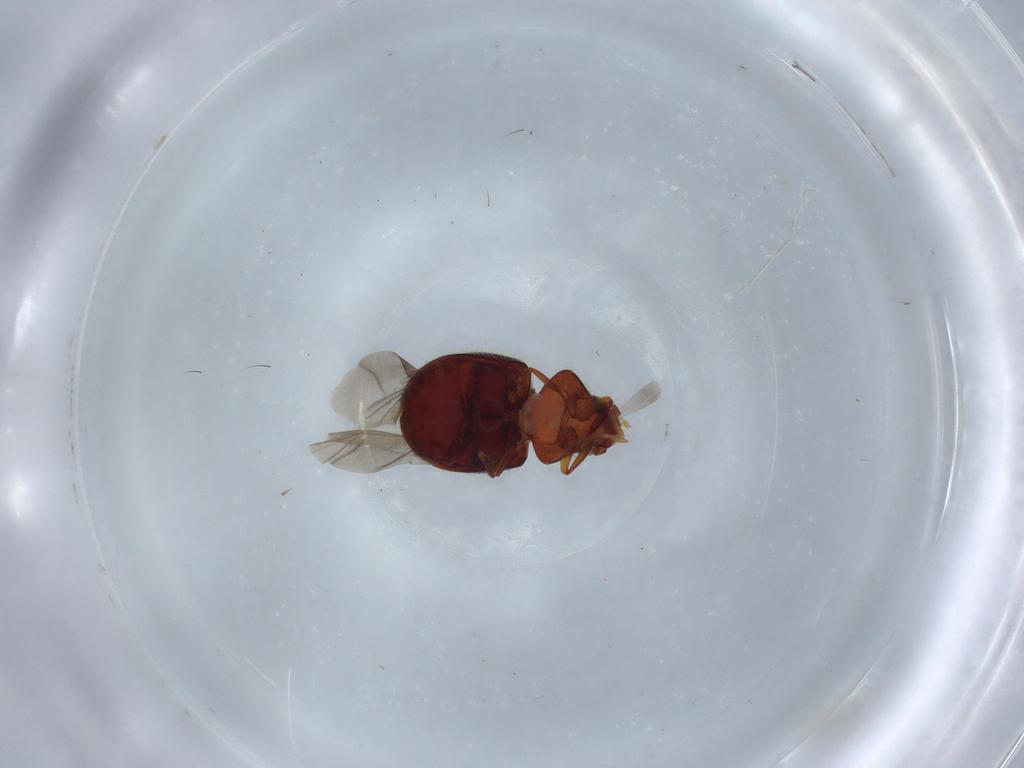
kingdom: Animalia
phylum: Arthropoda
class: Insecta
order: Coleoptera
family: Ptinidae
